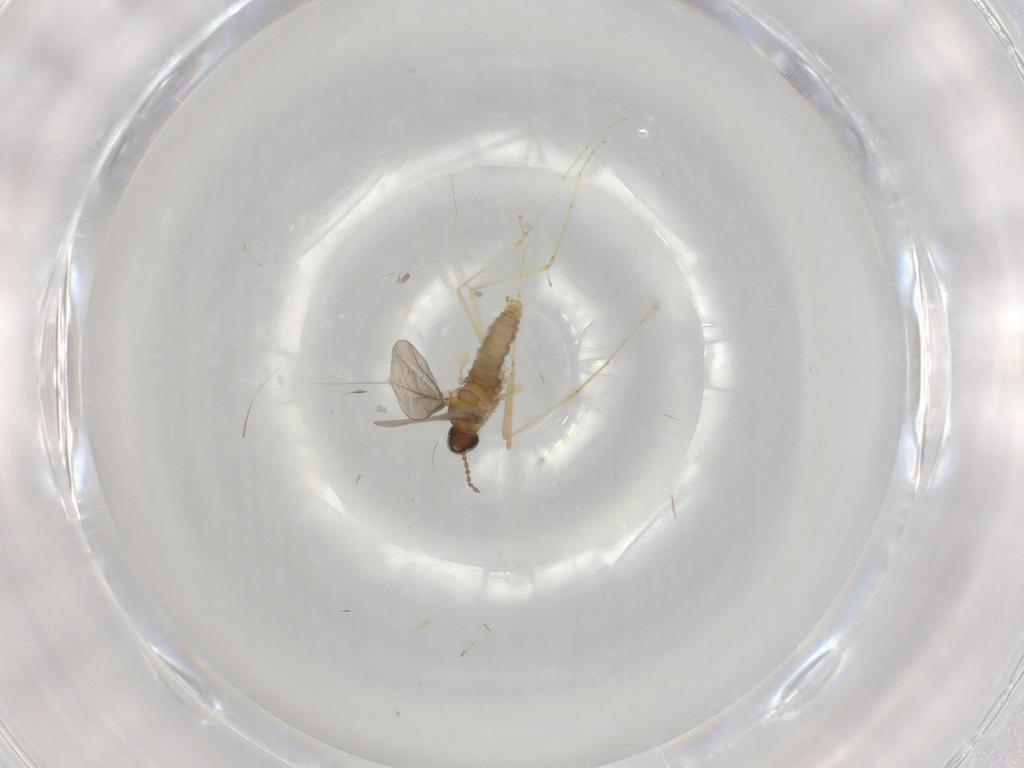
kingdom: Animalia
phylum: Arthropoda
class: Insecta
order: Diptera
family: Cecidomyiidae
